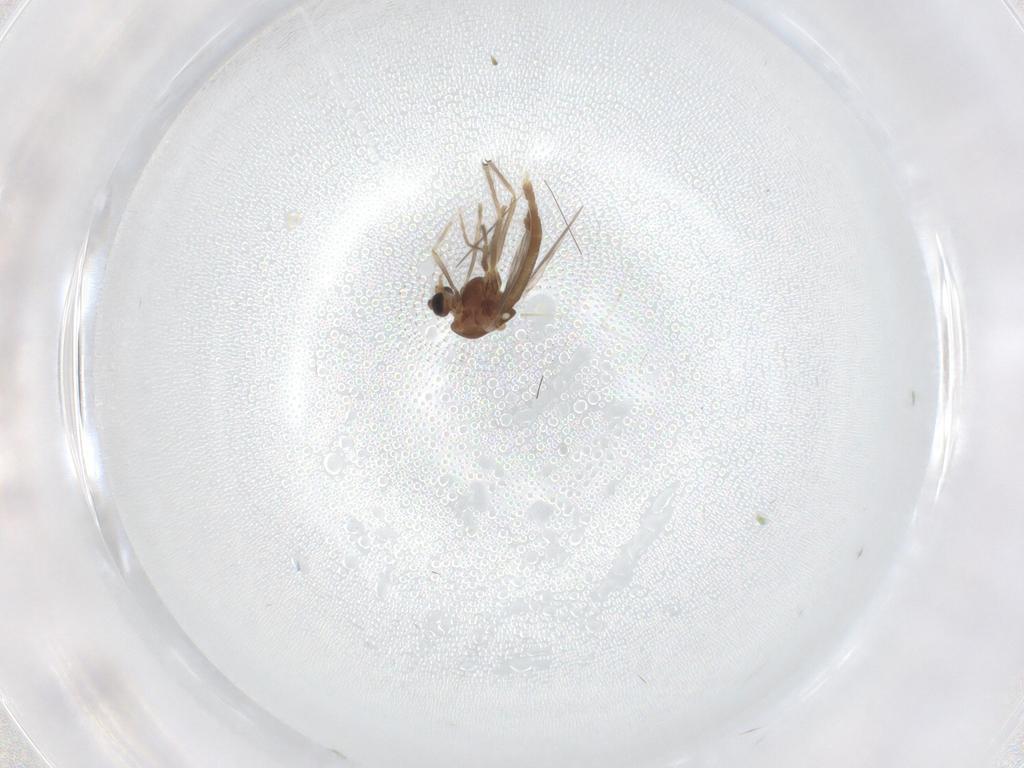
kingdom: Animalia
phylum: Arthropoda
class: Insecta
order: Diptera
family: Chironomidae
